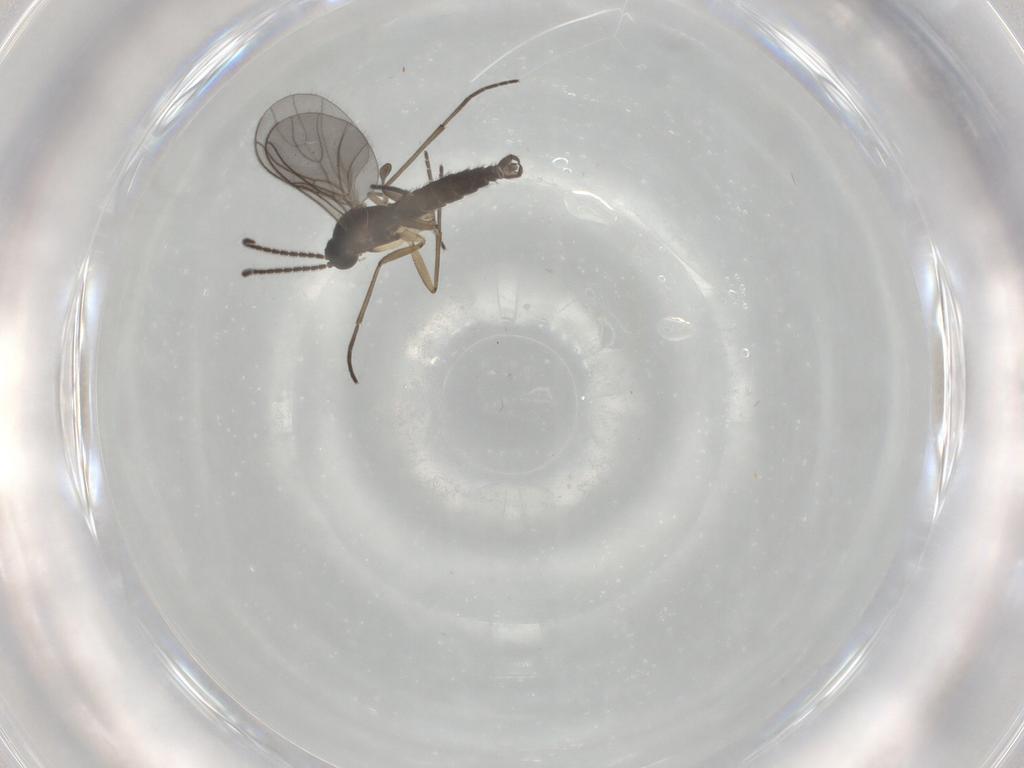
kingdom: Animalia
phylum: Arthropoda
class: Insecta
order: Diptera
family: Sciaridae
